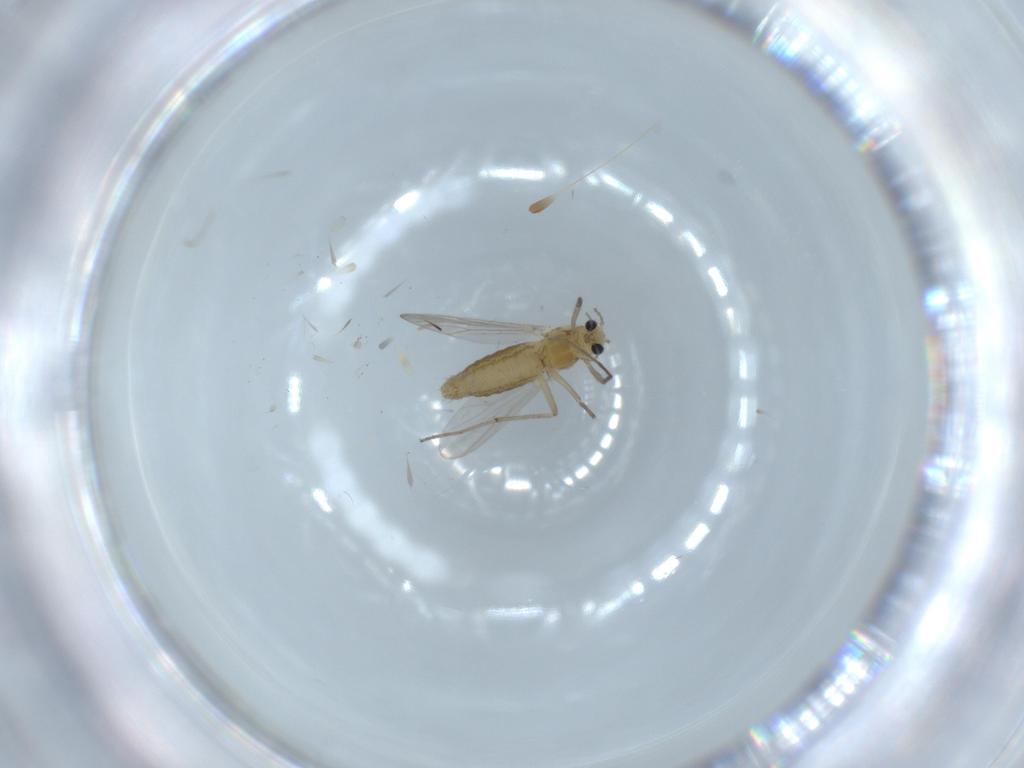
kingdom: Animalia
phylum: Arthropoda
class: Insecta
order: Diptera
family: Chironomidae
